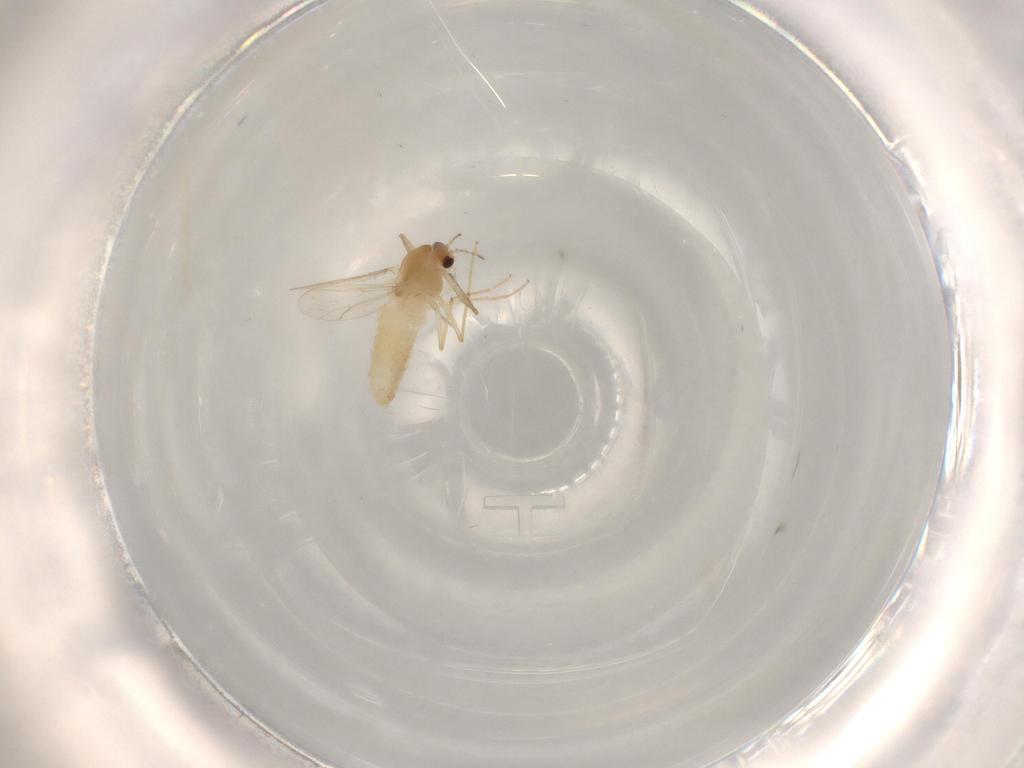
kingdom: Animalia
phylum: Arthropoda
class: Insecta
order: Diptera
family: Chironomidae
